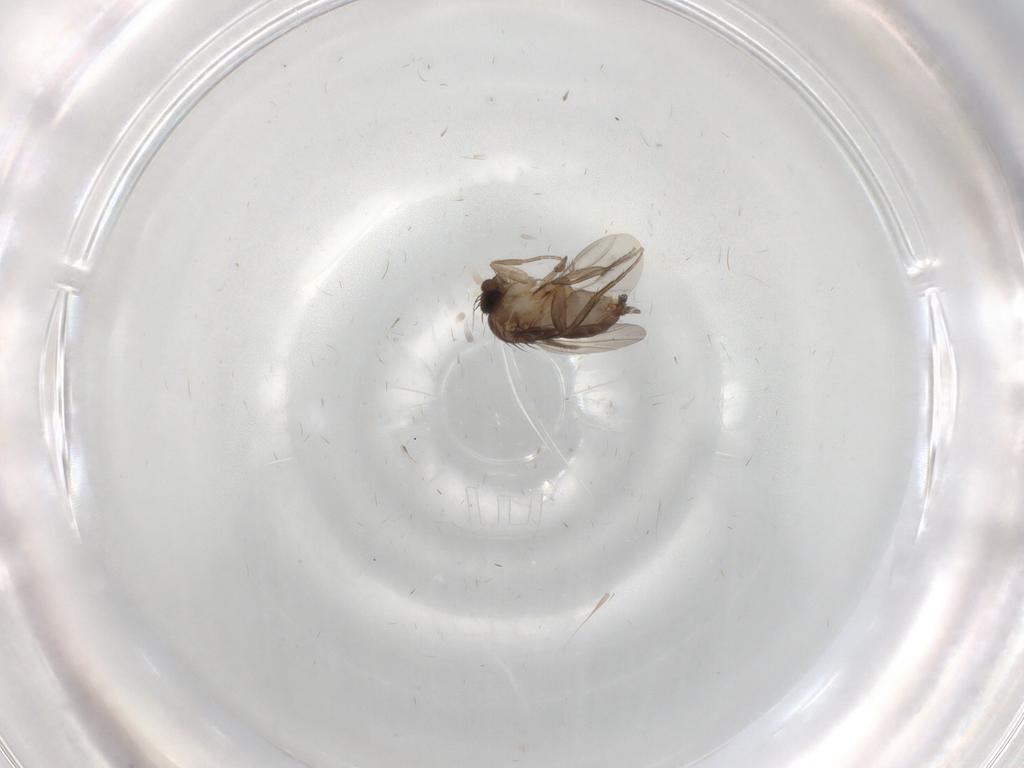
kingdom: Animalia
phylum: Arthropoda
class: Insecta
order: Diptera
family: Phoridae
